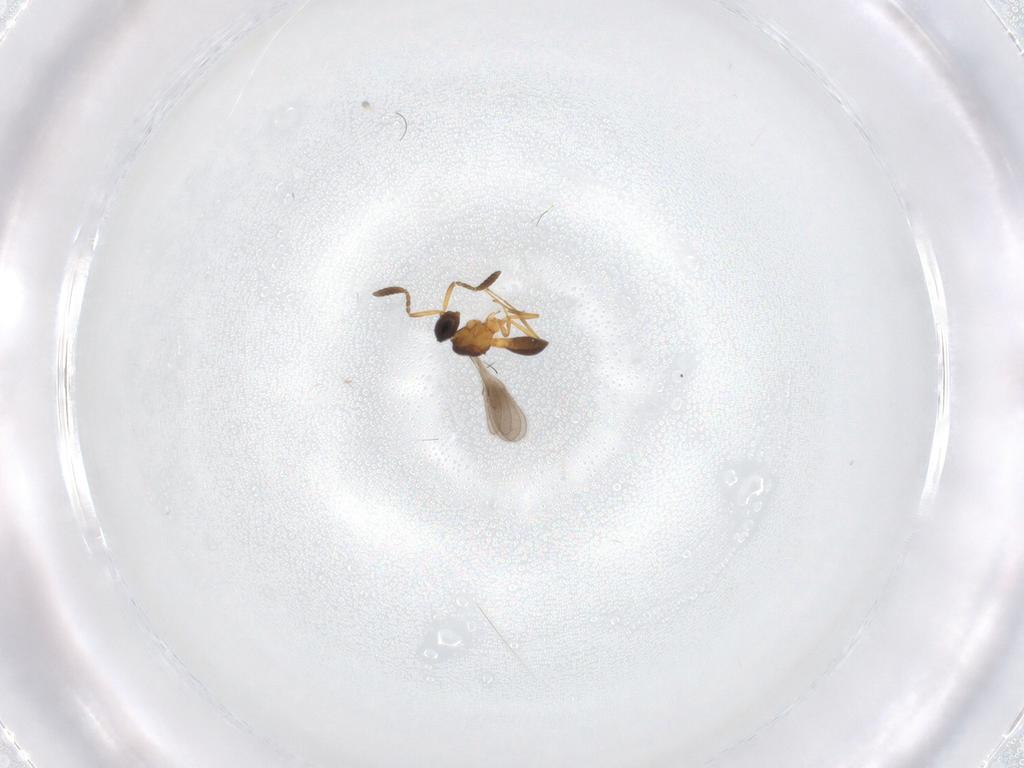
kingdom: Animalia
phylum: Arthropoda
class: Insecta
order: Hymenoptera
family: Scelionidae
